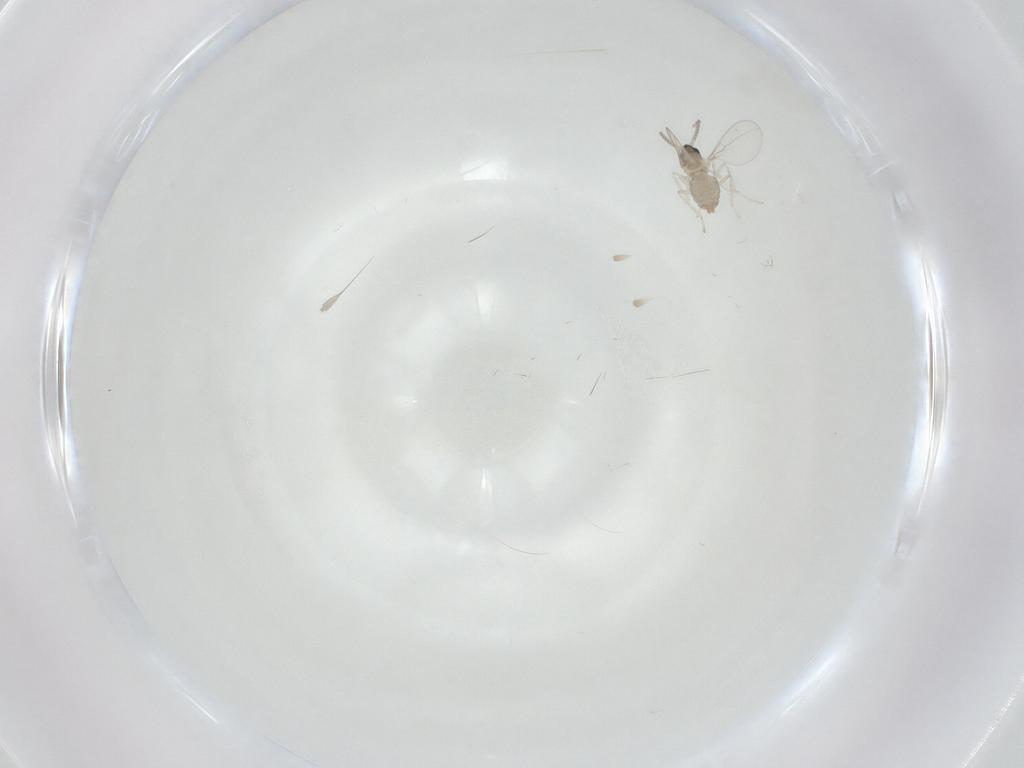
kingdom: Animalia
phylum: Arthropoda
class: Insecta
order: Diptera
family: Cecidomyiidae
